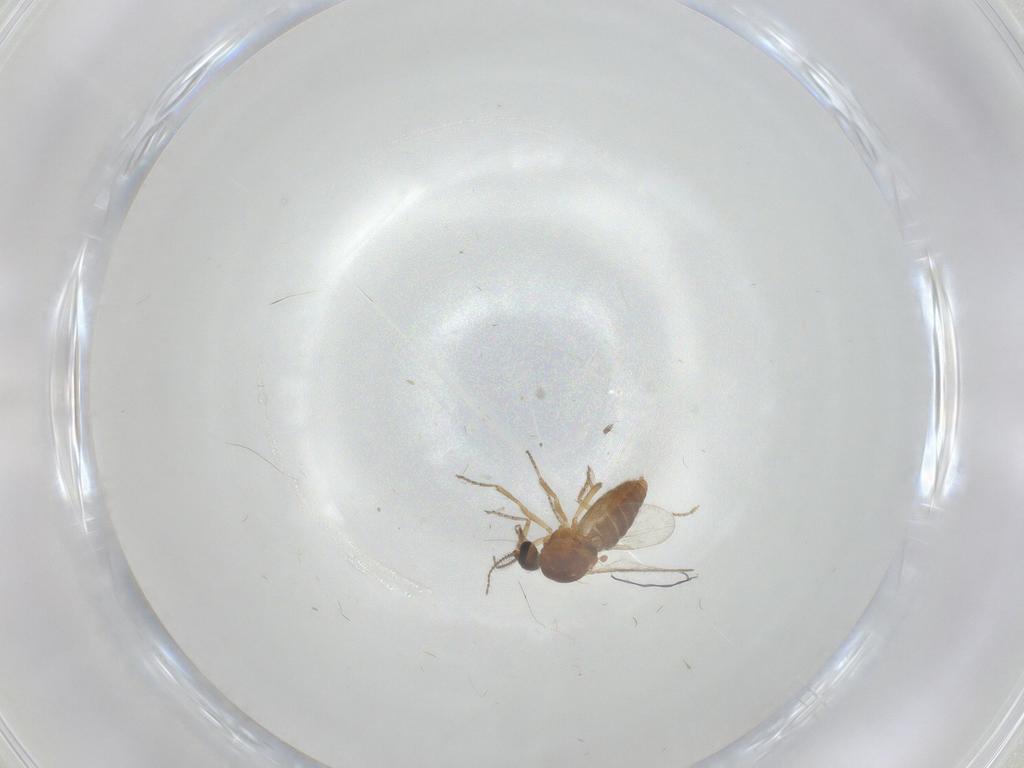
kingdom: Animalia
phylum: Arthropoda
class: Insecta
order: Diptera
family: Ceratopogonidae
